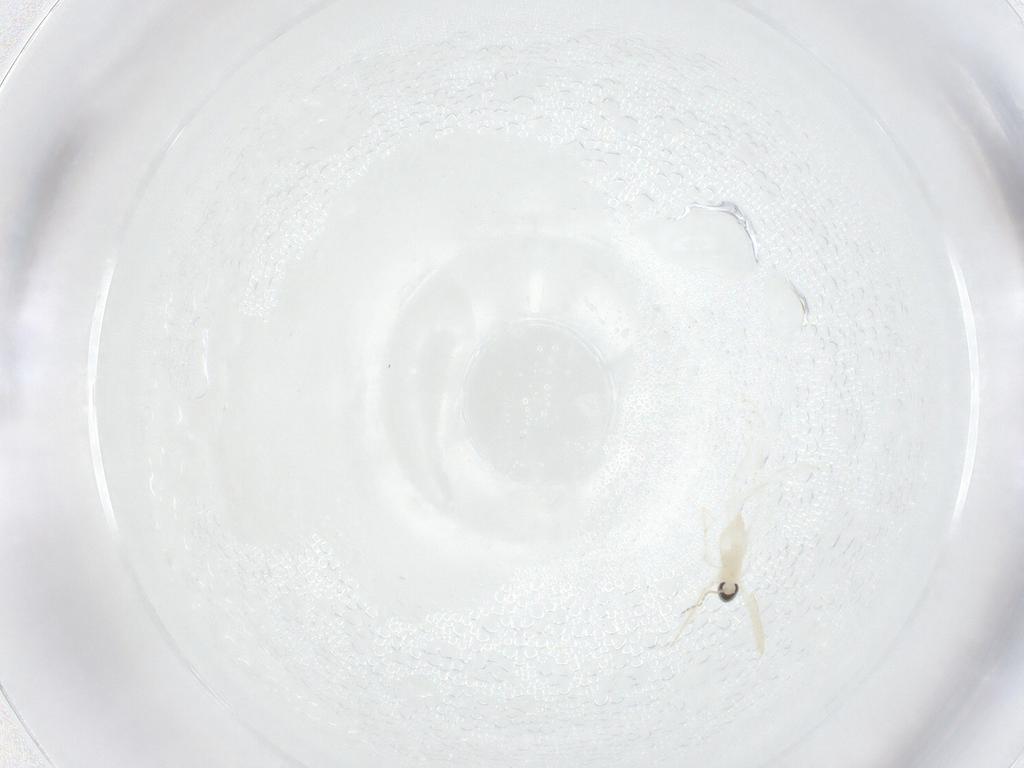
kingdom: Animalia
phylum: Arthropoda
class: Insecta
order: Diptera
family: Cecidomyiidae
